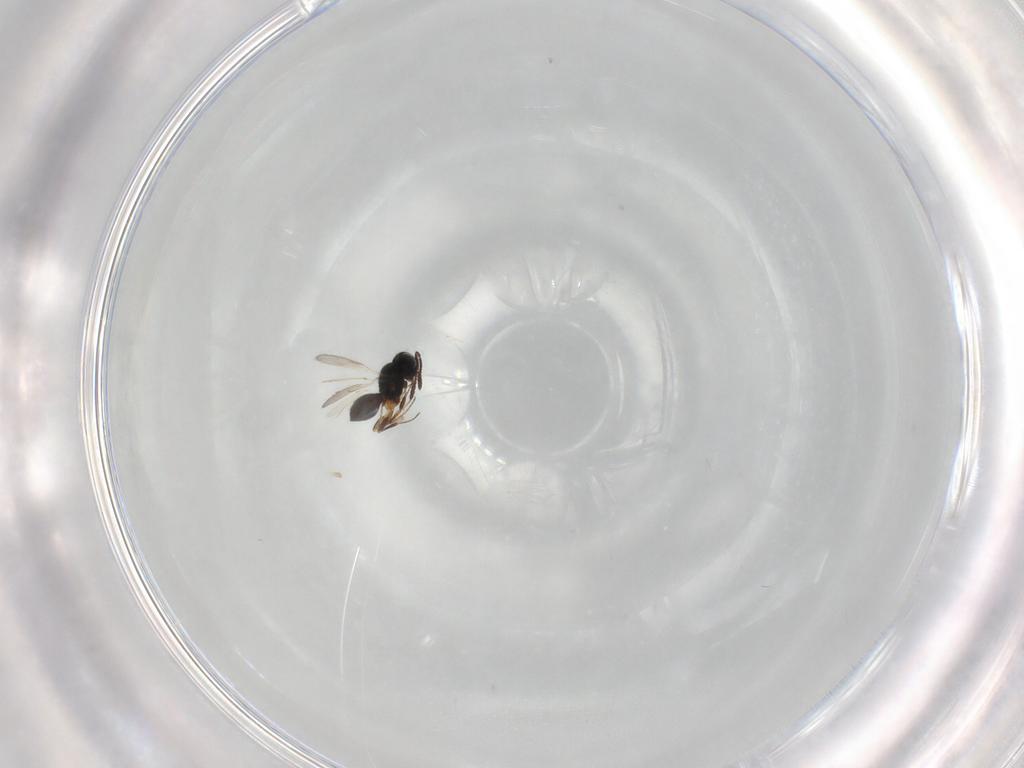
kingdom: Animalia
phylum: Arthropoda
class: Insecta
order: Hymenoptera
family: Scelionidae
